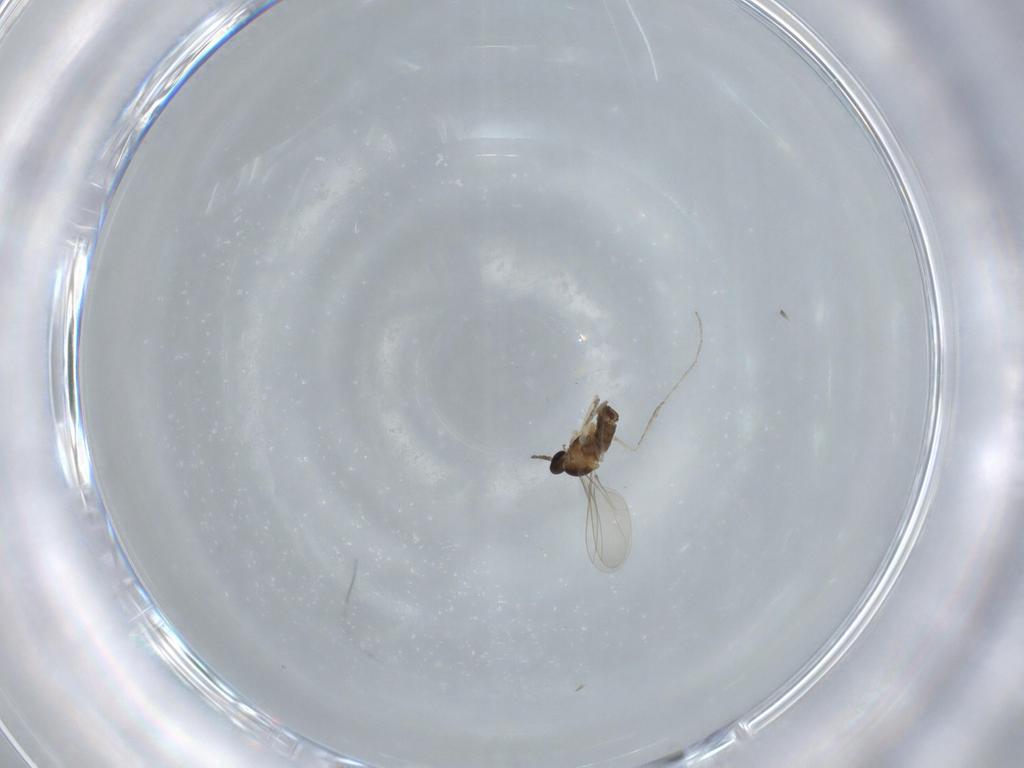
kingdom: Animalia
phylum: Arthropoda
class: Insecta
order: Diptera
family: Cecidomyiidae
